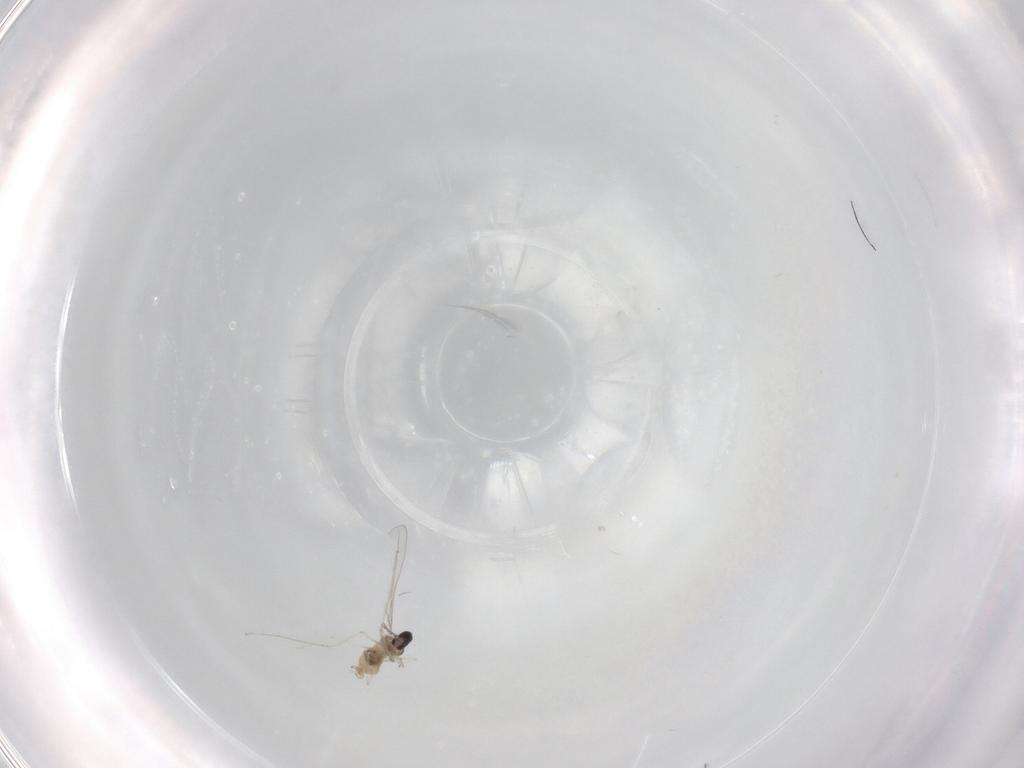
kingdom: Animalia
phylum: Arthropoda
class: Insecta
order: Diptera
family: Cecidomyiidae
